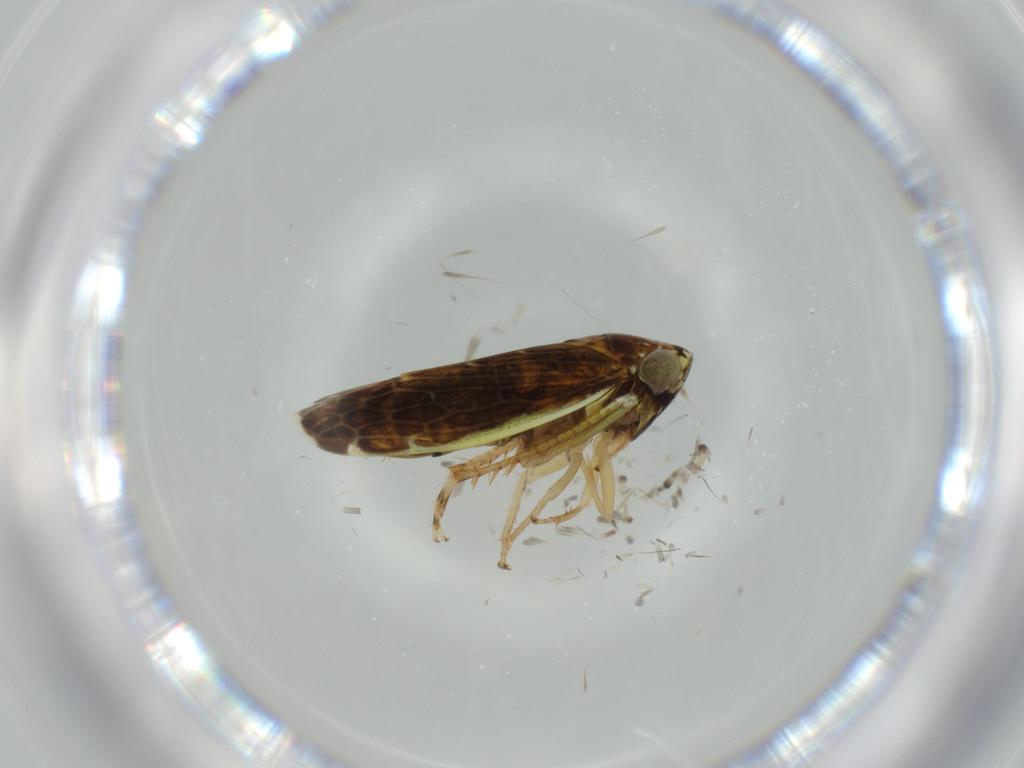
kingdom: Animalia
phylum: Arthropoda
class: Insecta
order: Hemiptera
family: Cicadellidae
